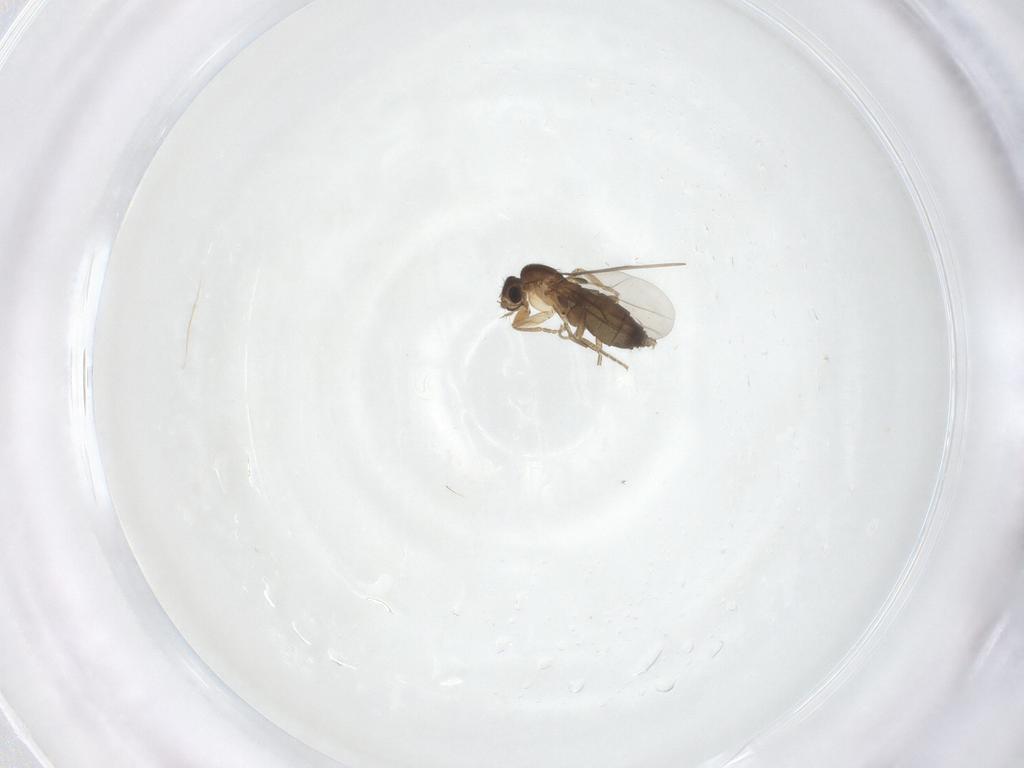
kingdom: Animalia
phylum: Arthropoda
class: Insecta
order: Diptera
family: Phoridae
